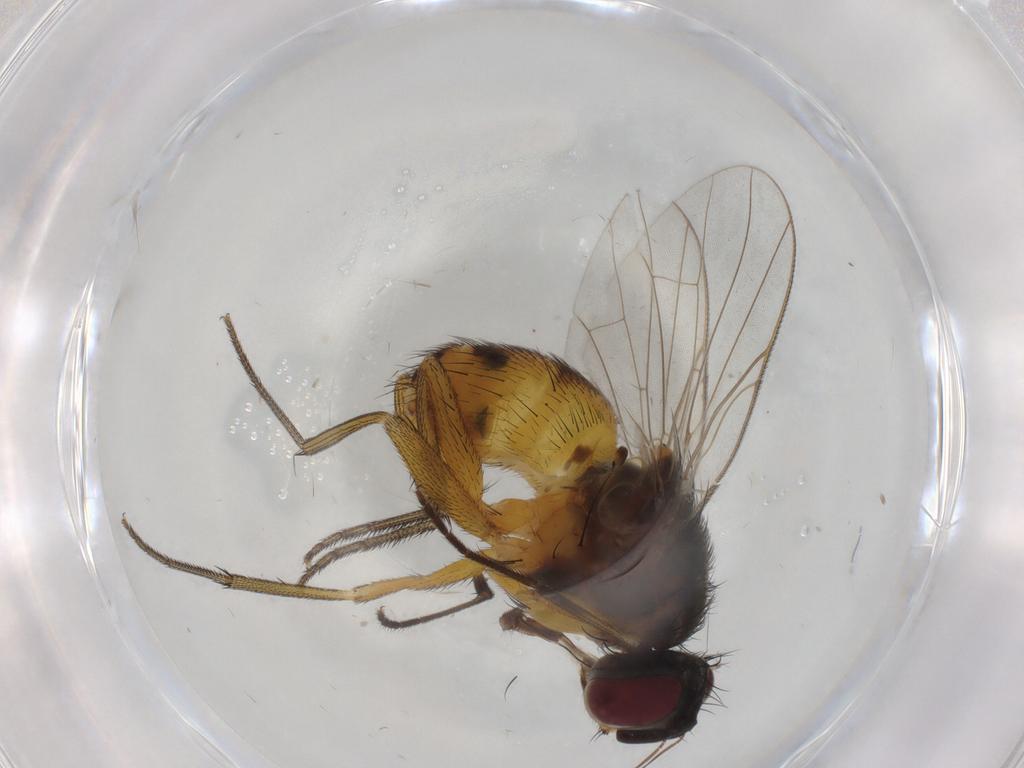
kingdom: Animalia
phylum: Arthropoda
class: Insecta
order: Diptera
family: Muscidae
